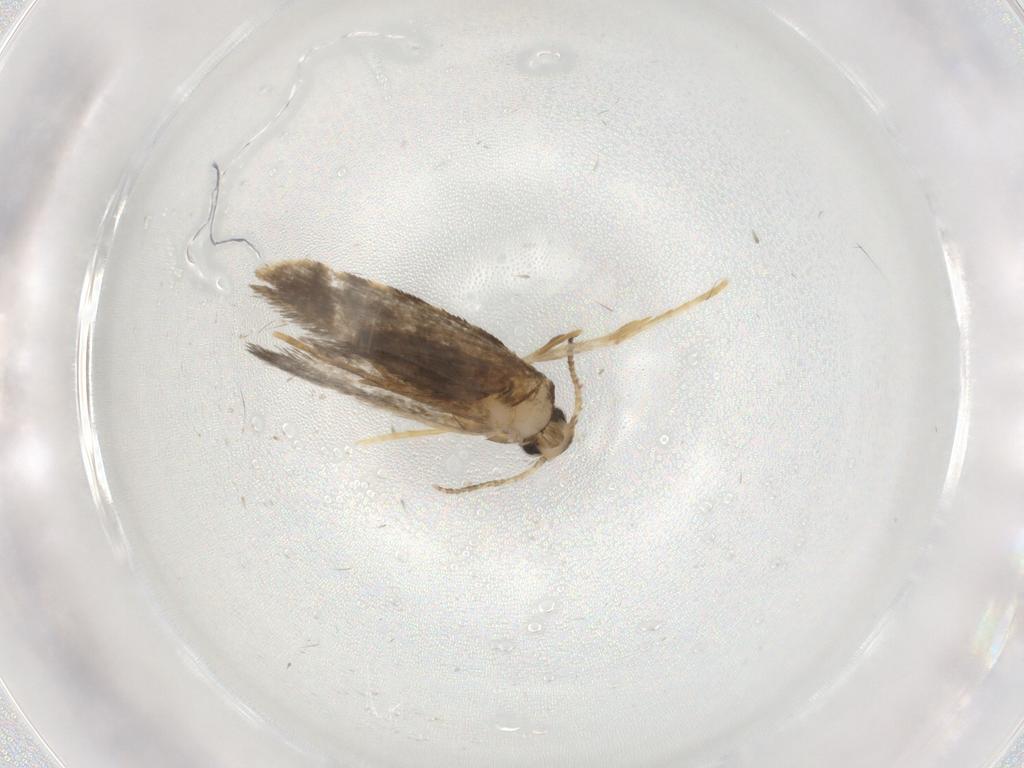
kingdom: Animalia
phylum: Arthropoda
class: Insecta
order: Lepidoptera
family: Psychidae
